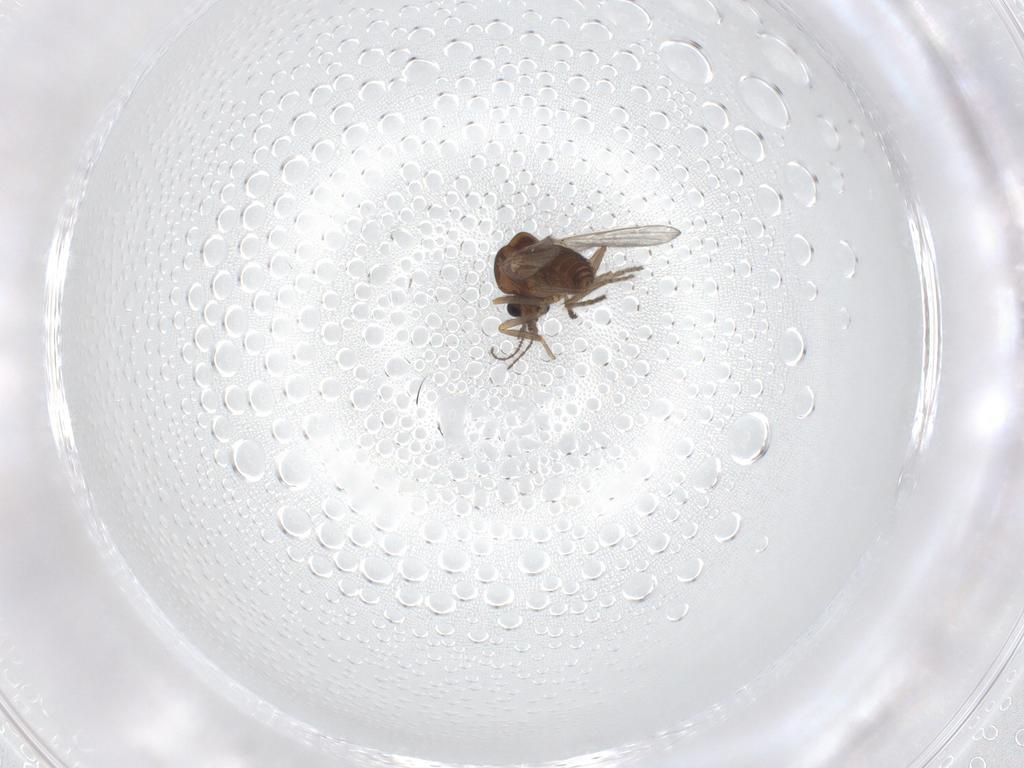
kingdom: Animalia
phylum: Arthropoda
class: Insecta
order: Diptera
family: Ceratopogonidae
